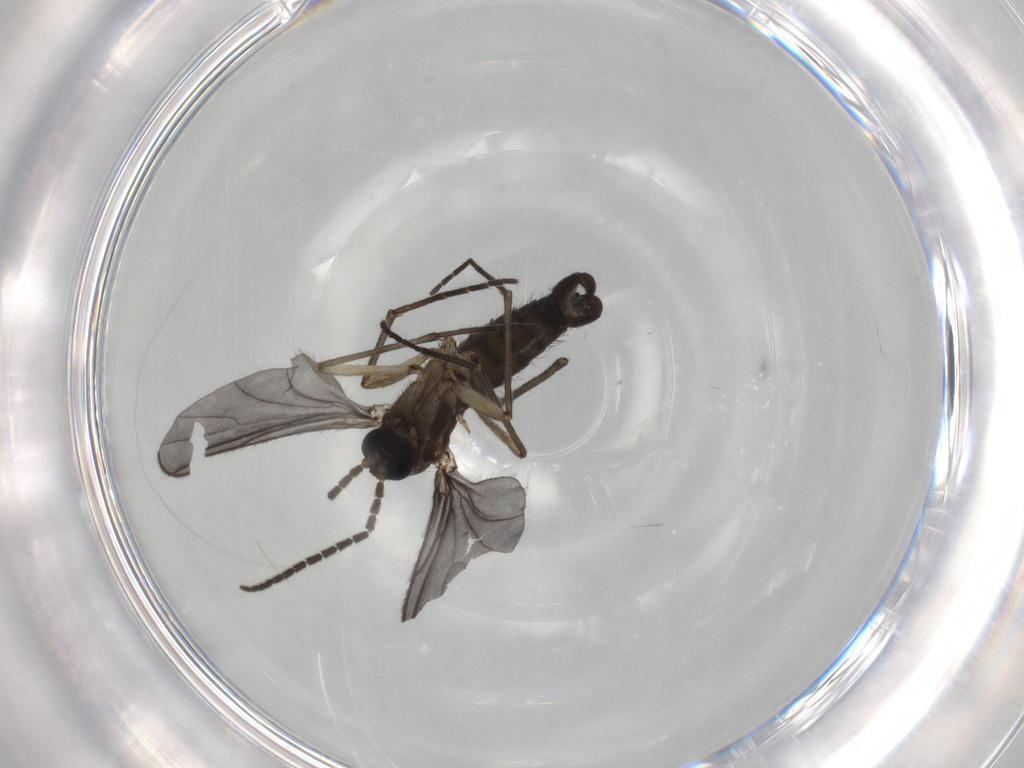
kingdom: Animalia
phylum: Arthropoda
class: Insecta
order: Diptera
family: Sciaridae
